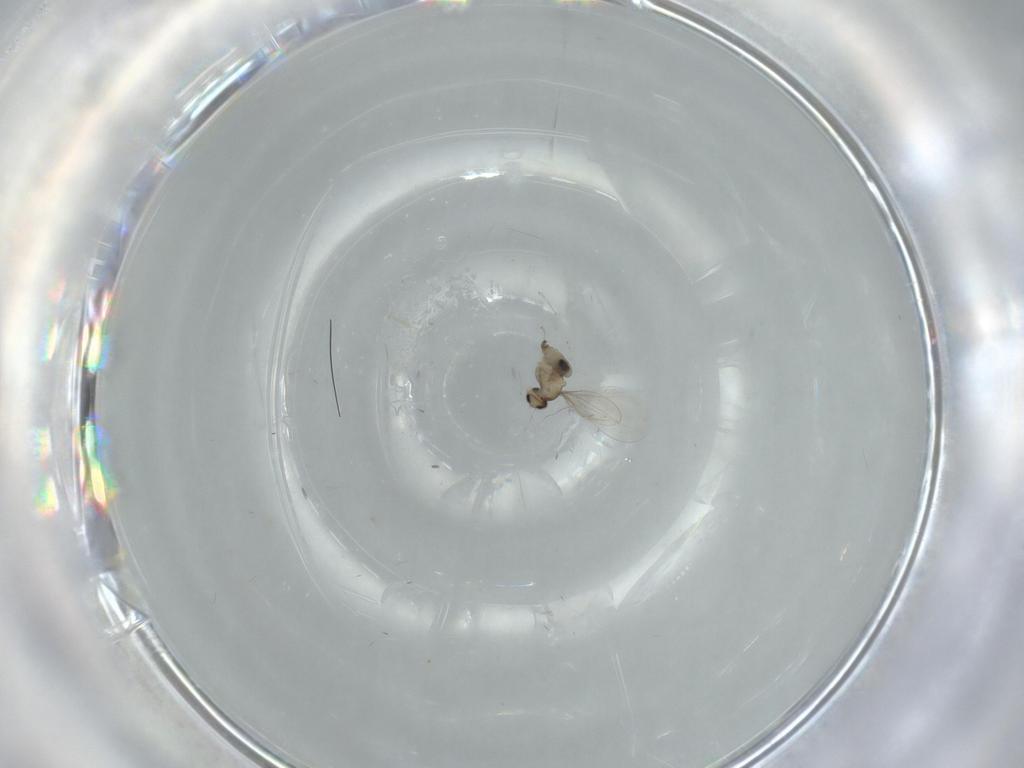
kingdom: Animalia
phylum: Arthropoda
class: Insecta
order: Diptera
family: Cecidomyiidae
